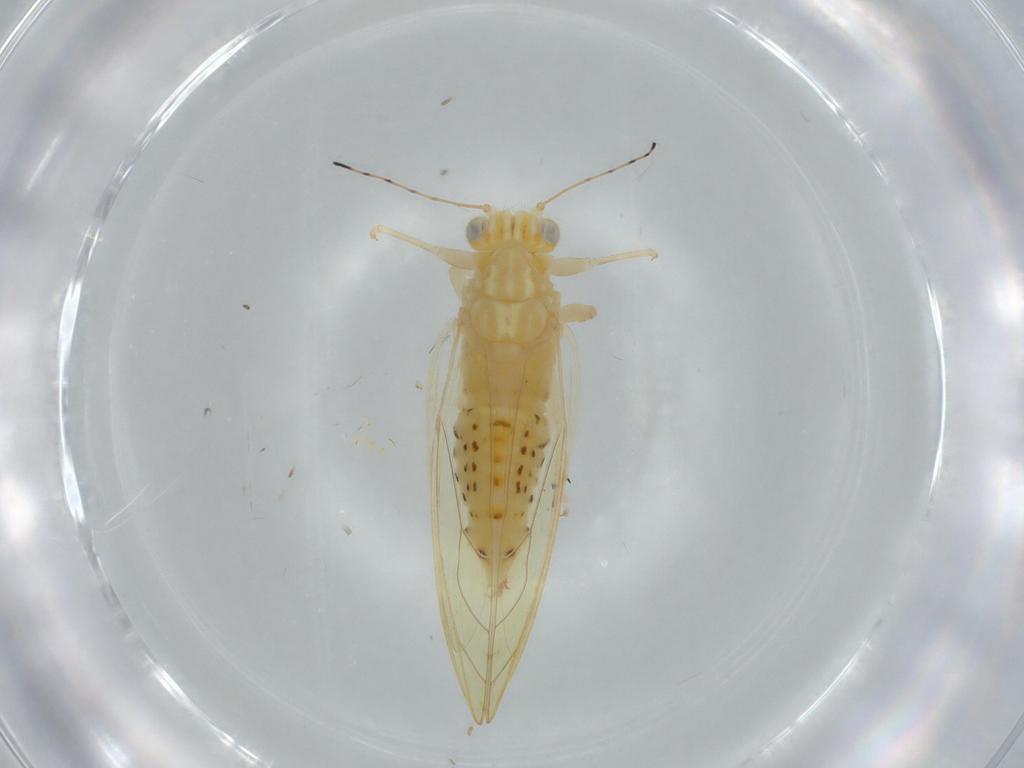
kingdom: Animalia
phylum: Arthropoda
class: Insecta
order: Hemiptera
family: Triozidae
